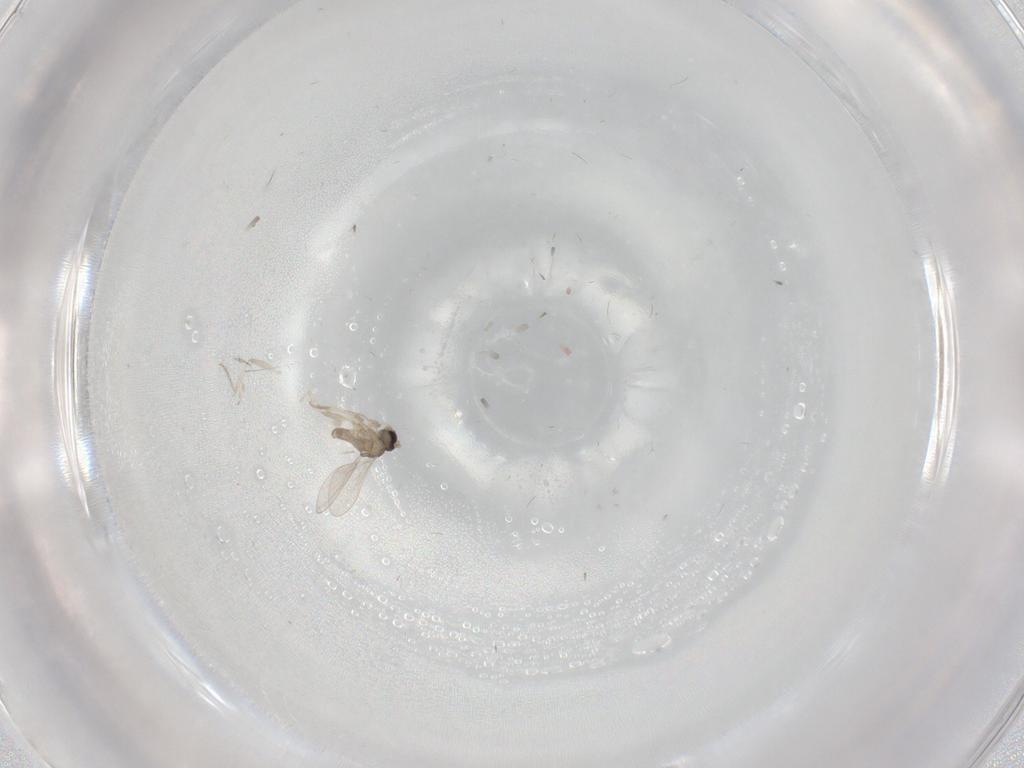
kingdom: Animalia
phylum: Arthropoda
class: Insecta
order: Diptera
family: Cecidomyiidae
